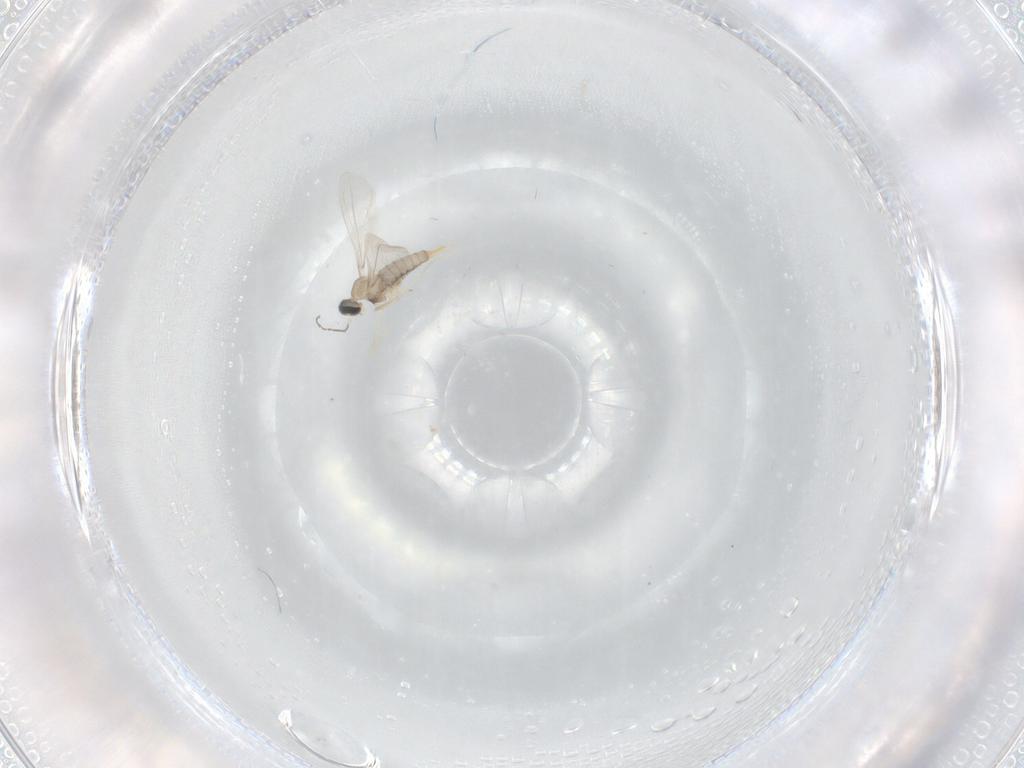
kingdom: Animalia
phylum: Arthropoda
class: Insecta
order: Diptera
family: Cecidomyiidae
